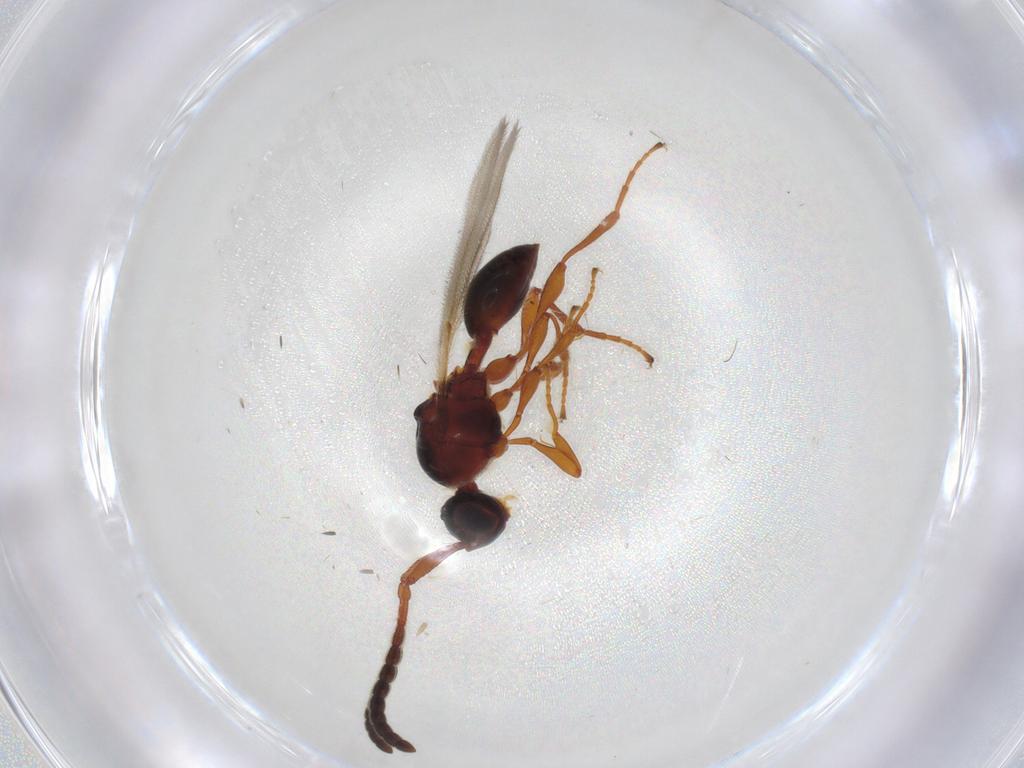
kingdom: Animalia
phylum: Arthropoda
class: Insecta
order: Hymenoptera
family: Diapriidae
